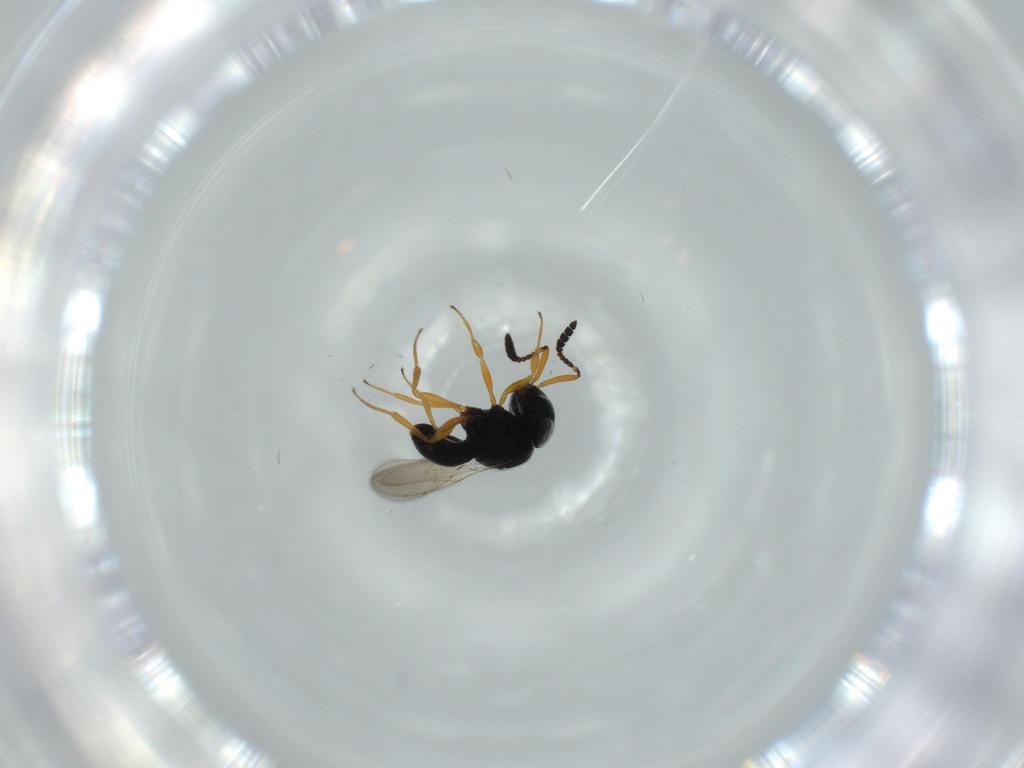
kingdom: Animalia
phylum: Arthropoda
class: Insecta
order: Hymenoptera
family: Scelionidae
